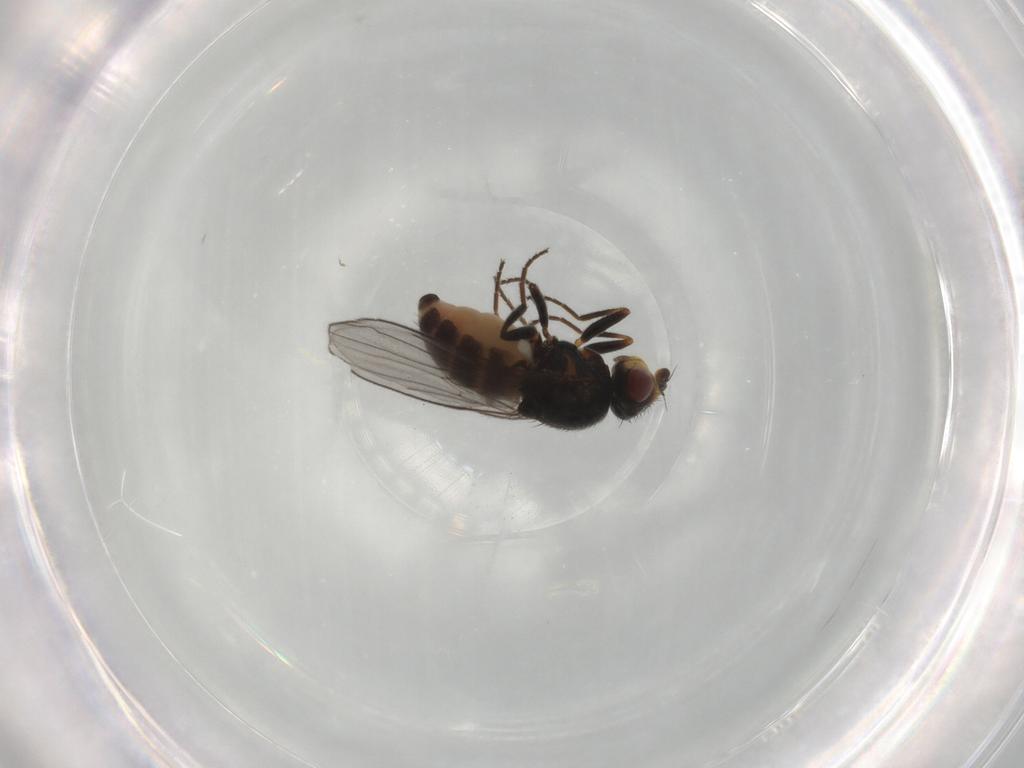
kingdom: Animalia
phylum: Arthropoda
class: Insecta
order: Diptera
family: Chloropidae
